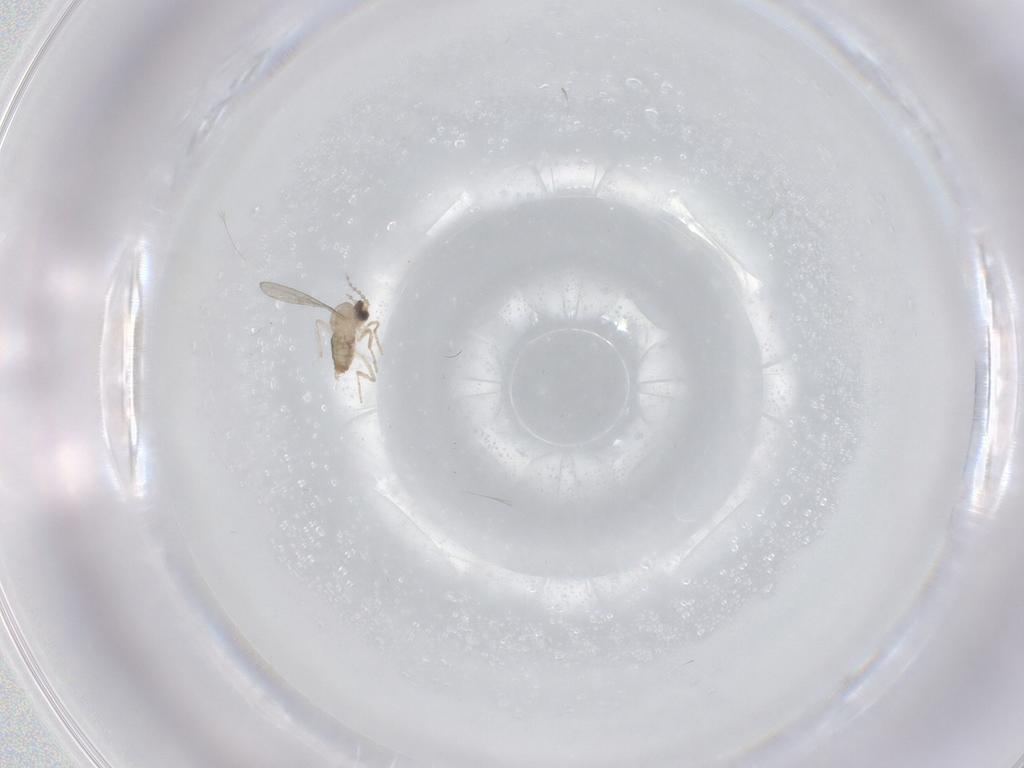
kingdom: Animalia
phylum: Arthropoda
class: Insecta
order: Diptera
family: Cecidomyiidae
